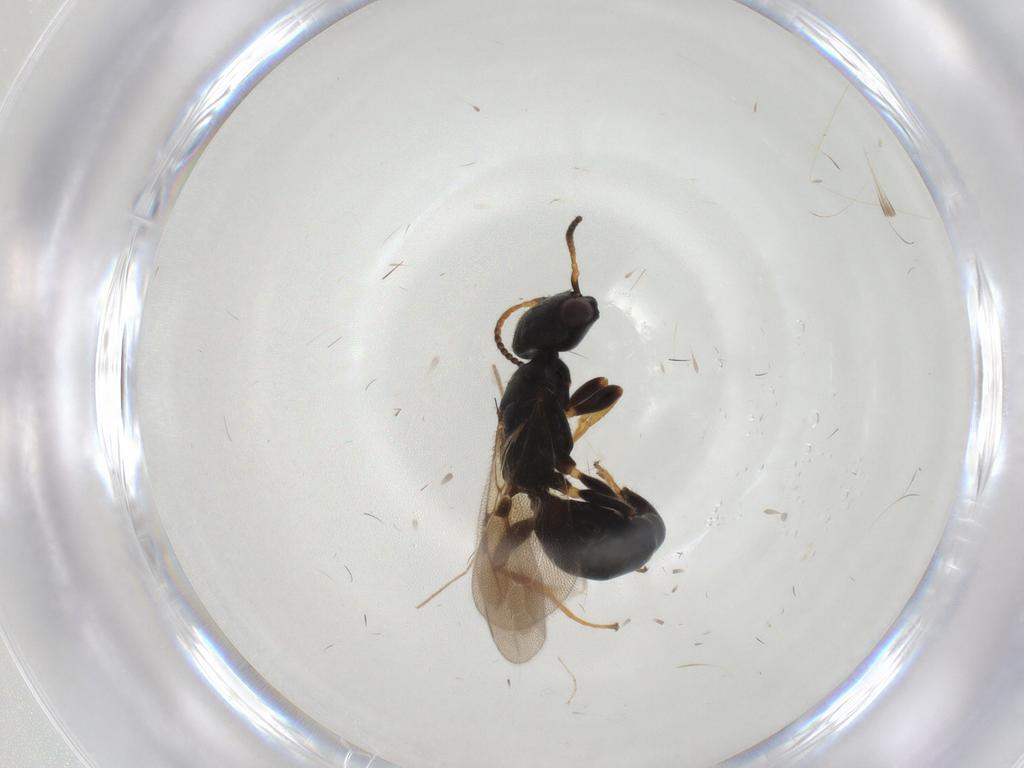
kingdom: Animalia
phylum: Arthropoda
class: Insecta
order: Hymenoptera
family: Bethylidae
